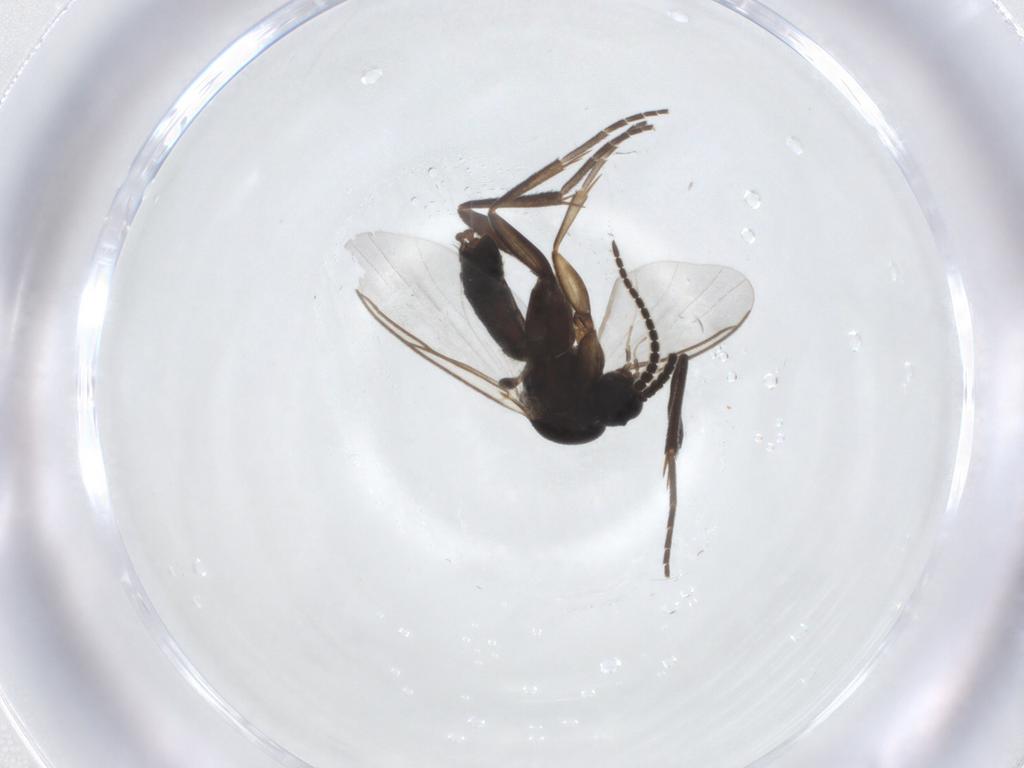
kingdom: Animalia
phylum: Arthropoda
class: Insecta
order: Diptera
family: Mycetophilidae
